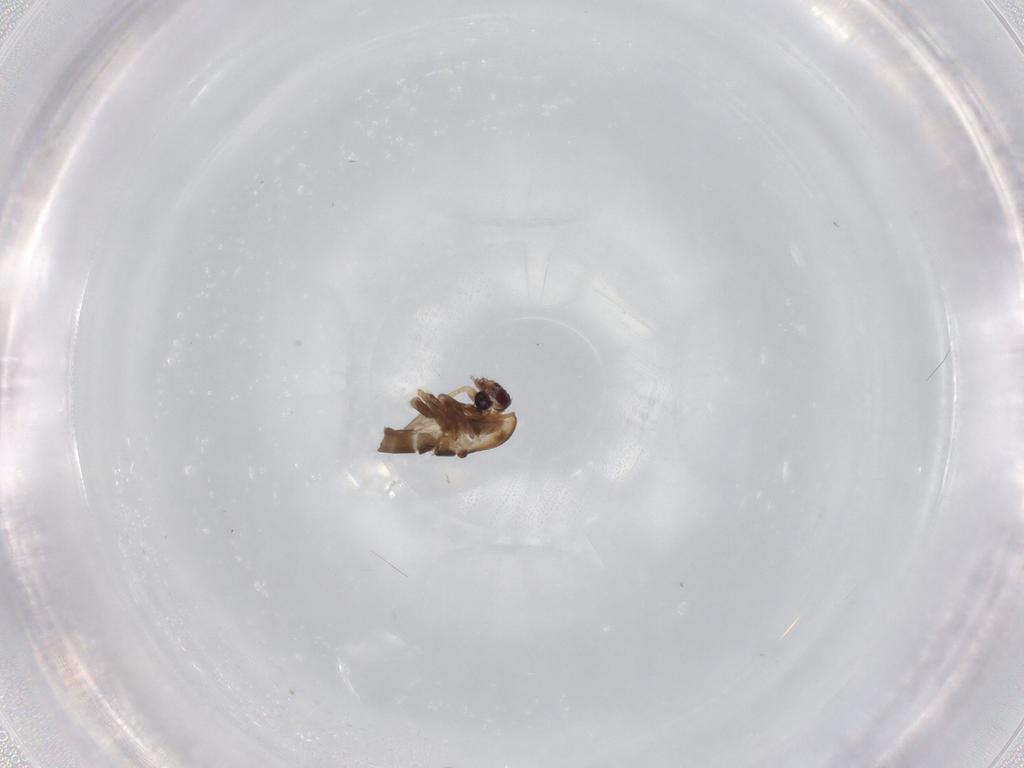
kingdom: Animalia
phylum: Arthropoda
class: Insecta
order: Diptera
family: Chironomidae
